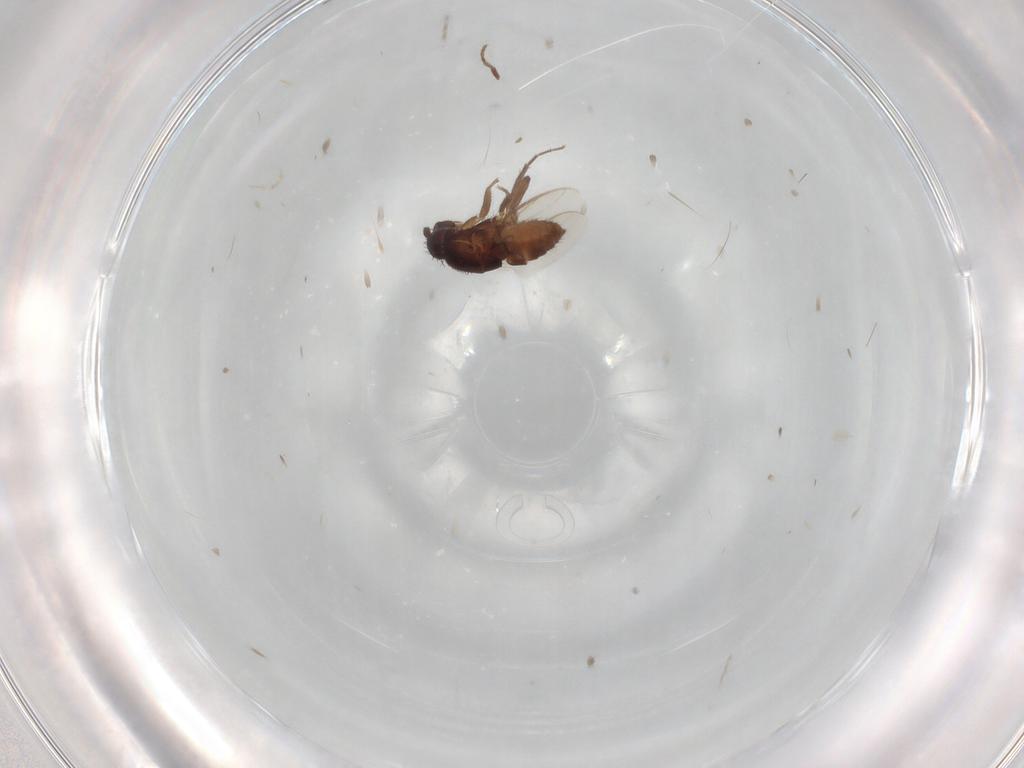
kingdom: Animalia
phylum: Arthropoda
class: Insecta
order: Diptera
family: Sphaeroceridae
